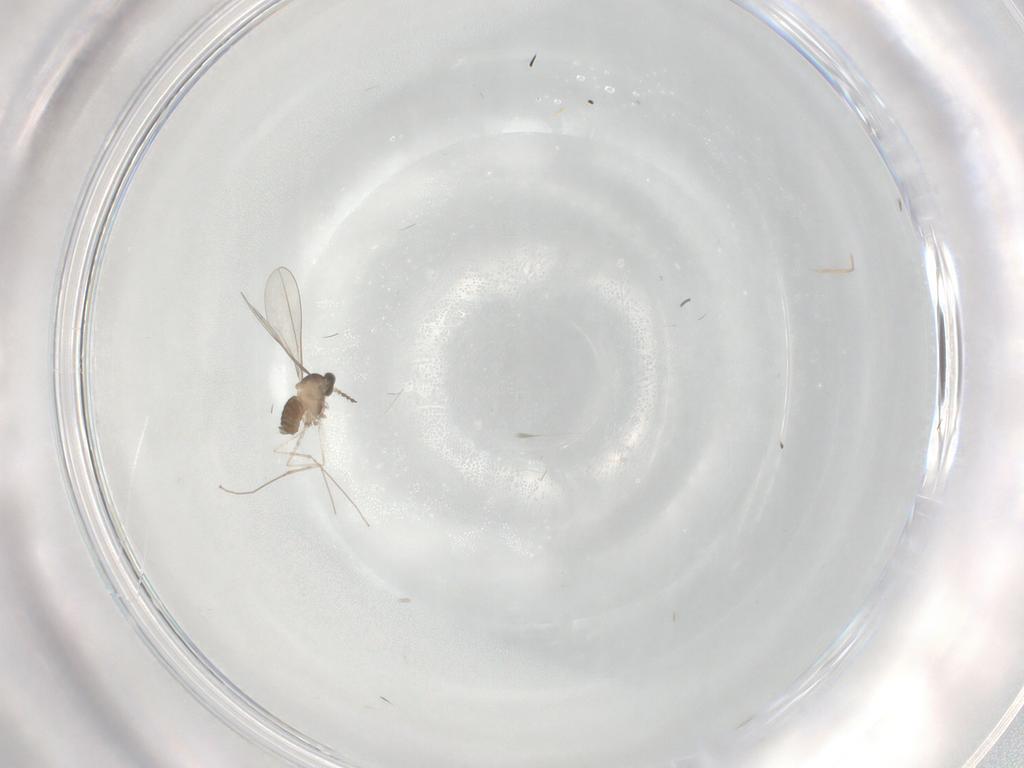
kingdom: Animalia
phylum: Arthropoda
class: Insecta
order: Diptera
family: Cecidomyiidae
